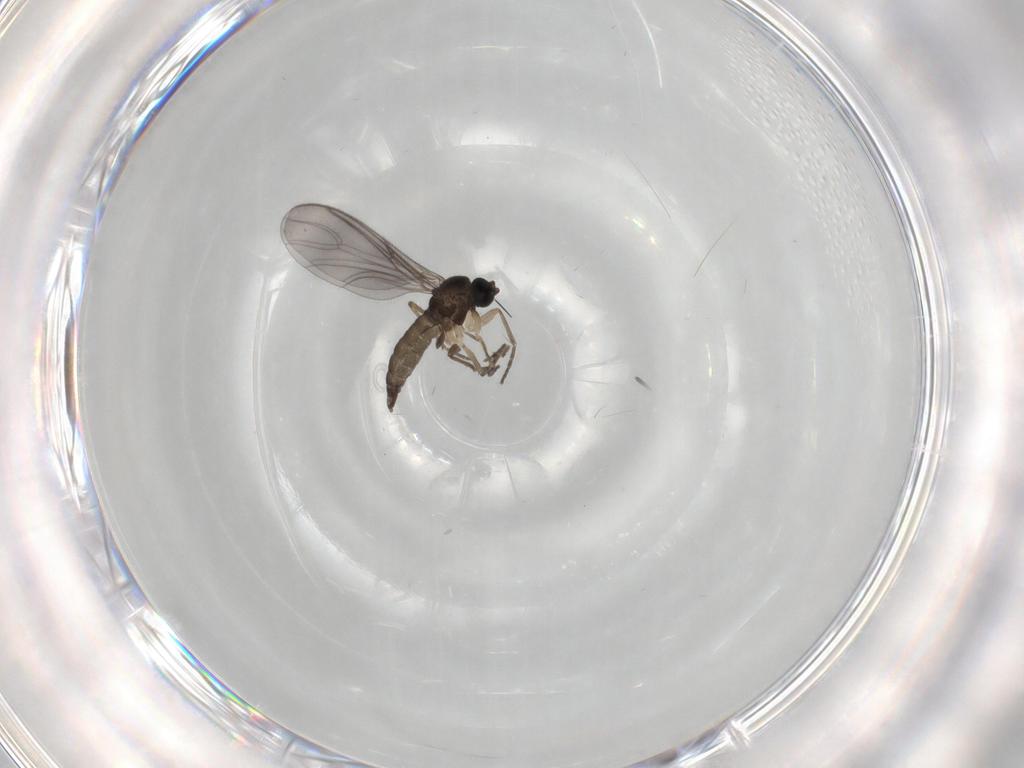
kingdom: Animalia
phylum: Arthropoda
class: Insecta
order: Diptera
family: Sciaridae
